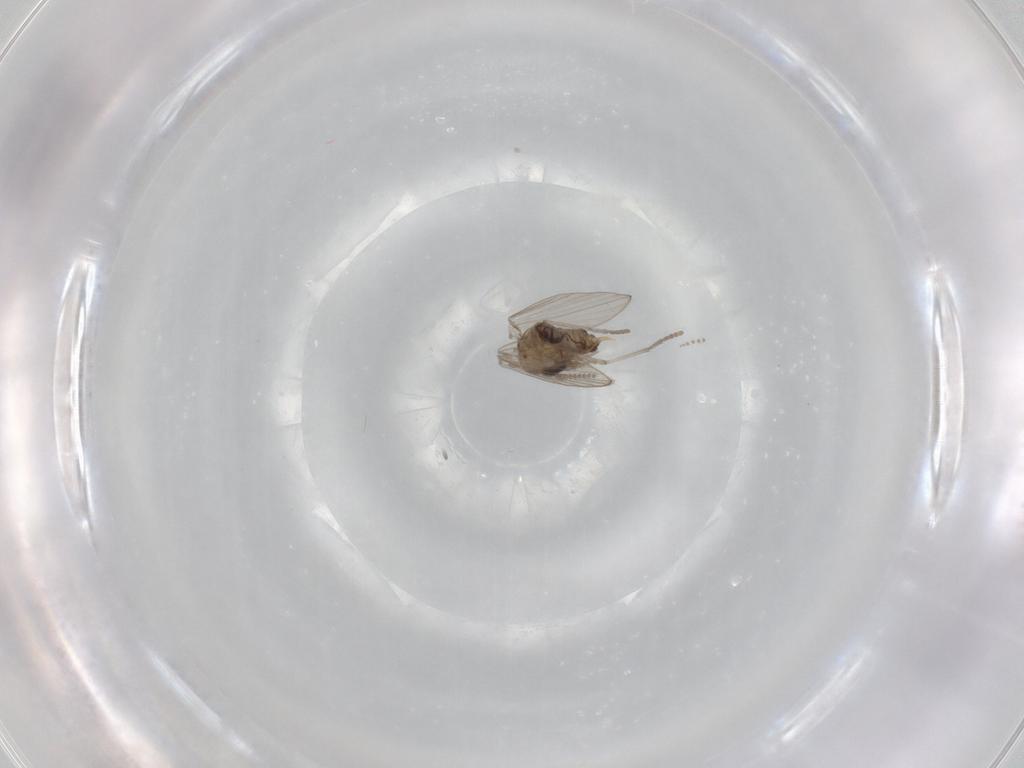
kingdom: Animalia
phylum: Arthropoda
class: Insecta
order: Diptera
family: Psychodidae
